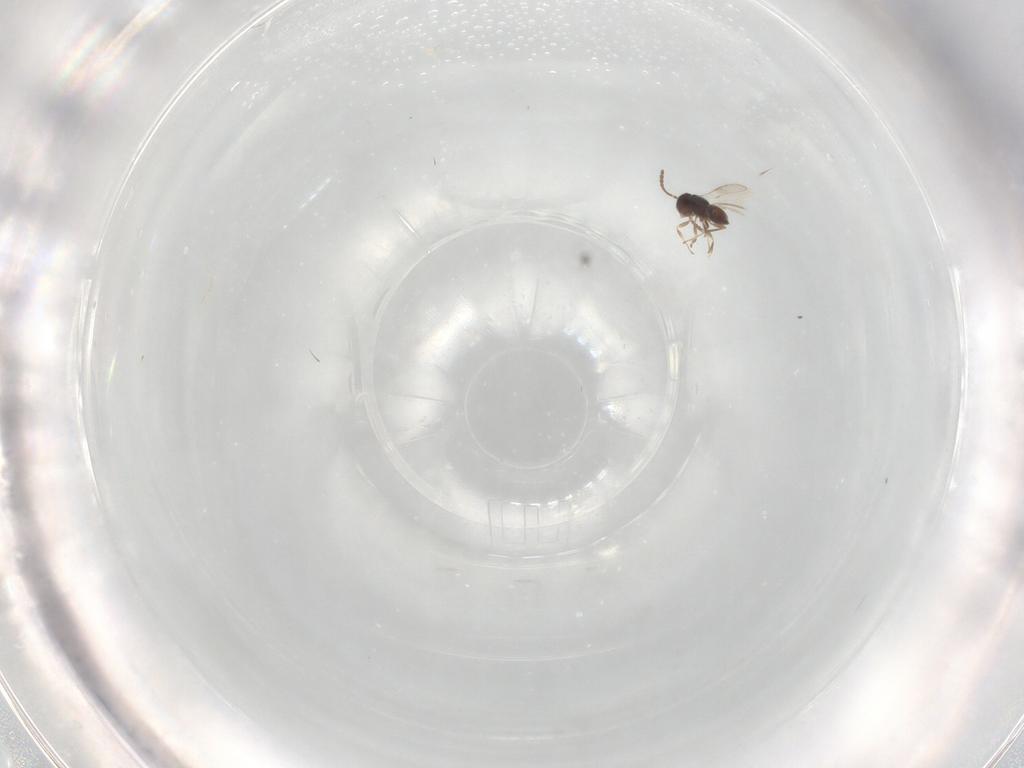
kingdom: Animalia
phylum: Arthropoda
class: Insecta
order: Hymenoptera
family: Scelionidae
